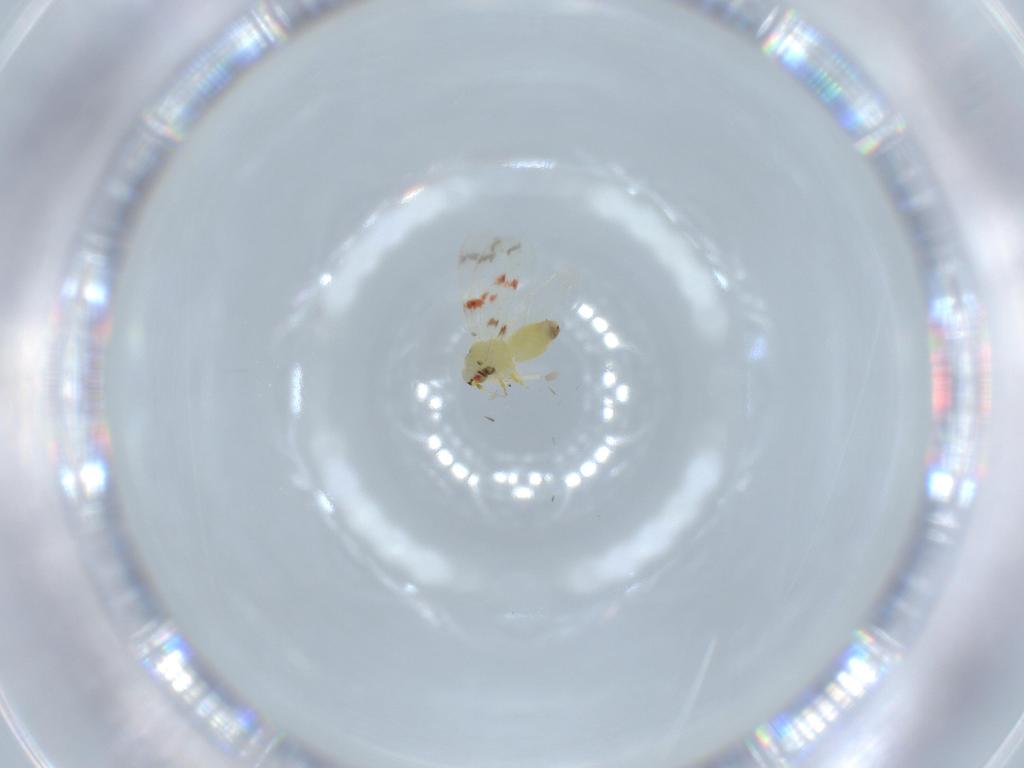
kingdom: Animalia
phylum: Arthropoda
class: Insecta
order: Hemiptera
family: Aleyrodidae
